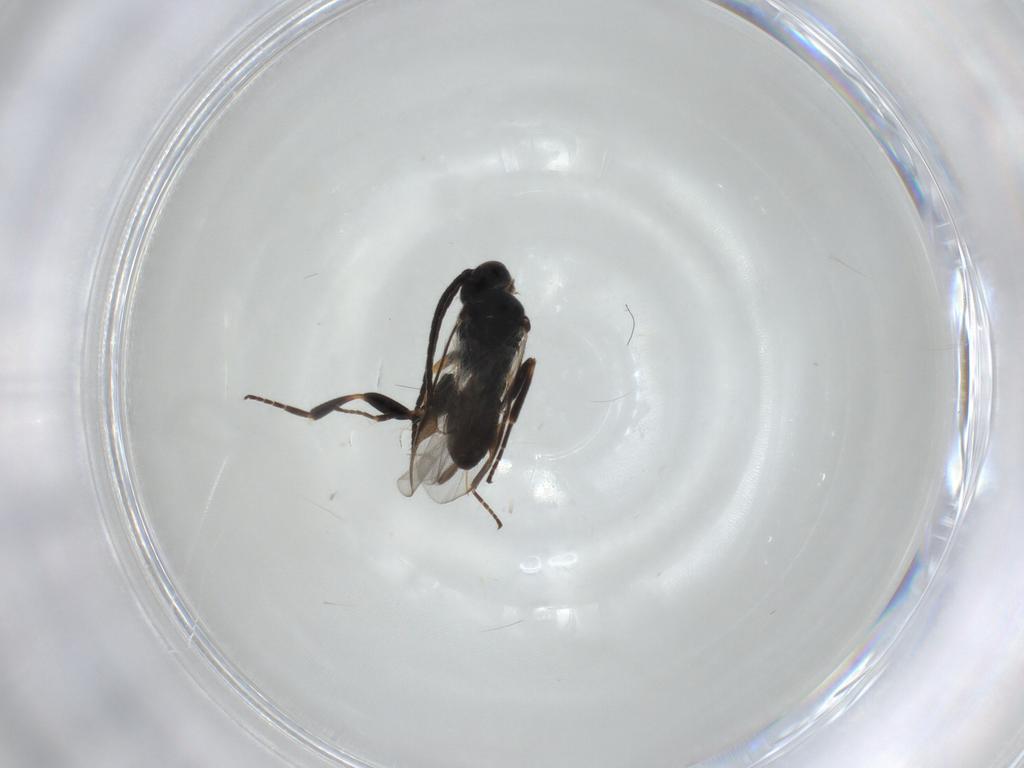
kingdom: Animalia
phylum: Arthropoda
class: Insecta
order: Hymenoptera
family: Braconidae
